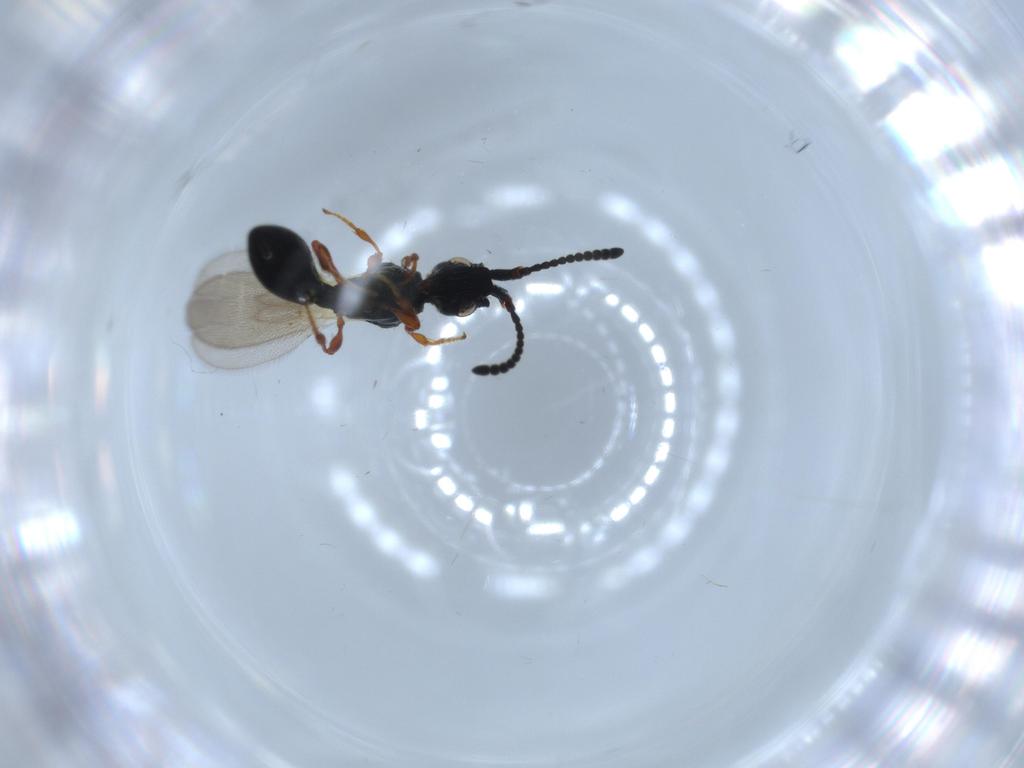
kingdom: Animalia
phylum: Arthropoda
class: Insecta
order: Hymenoptera
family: Diapriidae
